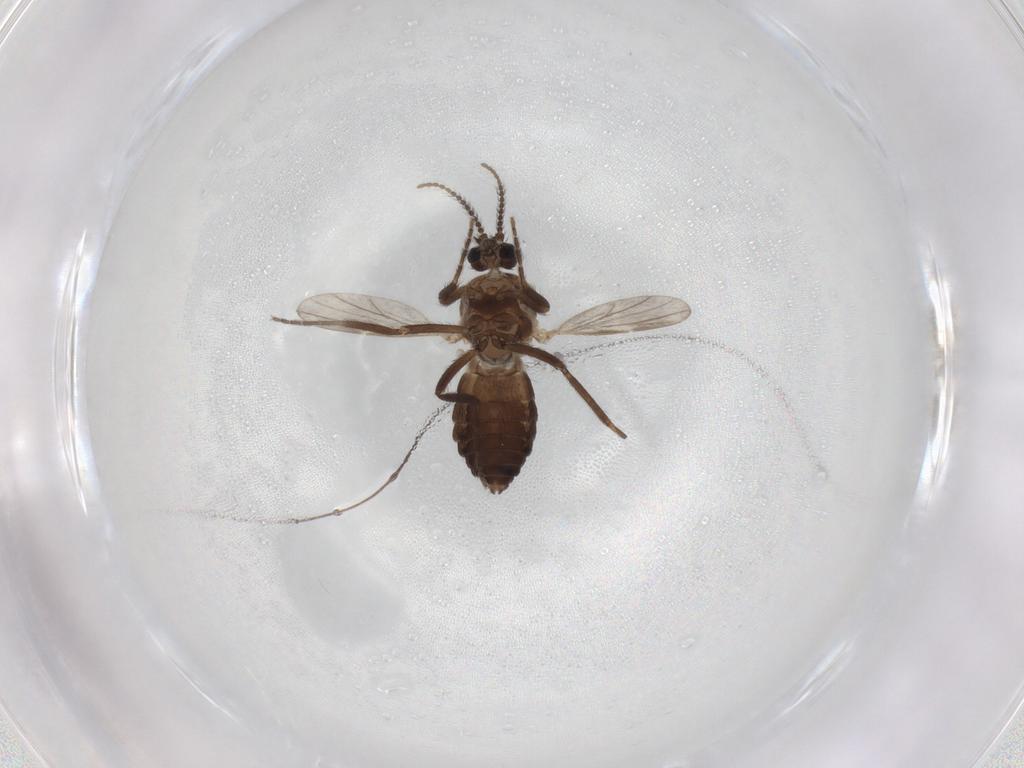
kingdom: Animalia
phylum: Arthropoda
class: Insecta
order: Diptera
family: Ceratopogonidae
